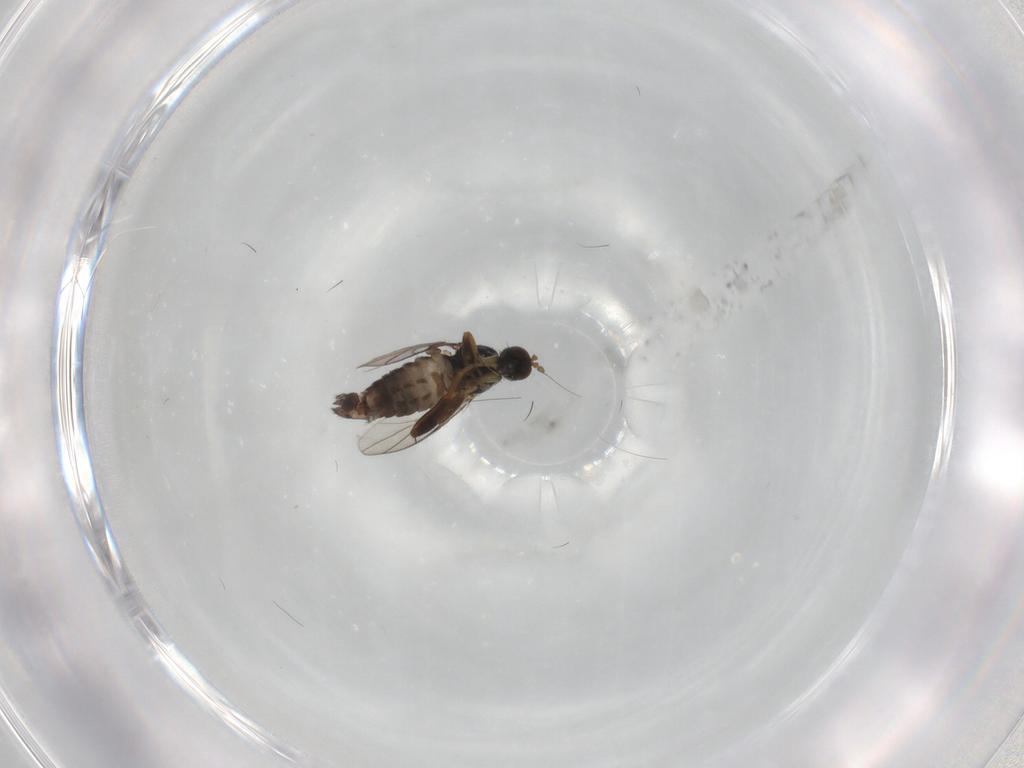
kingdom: Animalia
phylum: Arthropoda
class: Insecta
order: Diptera
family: Hybotidae
